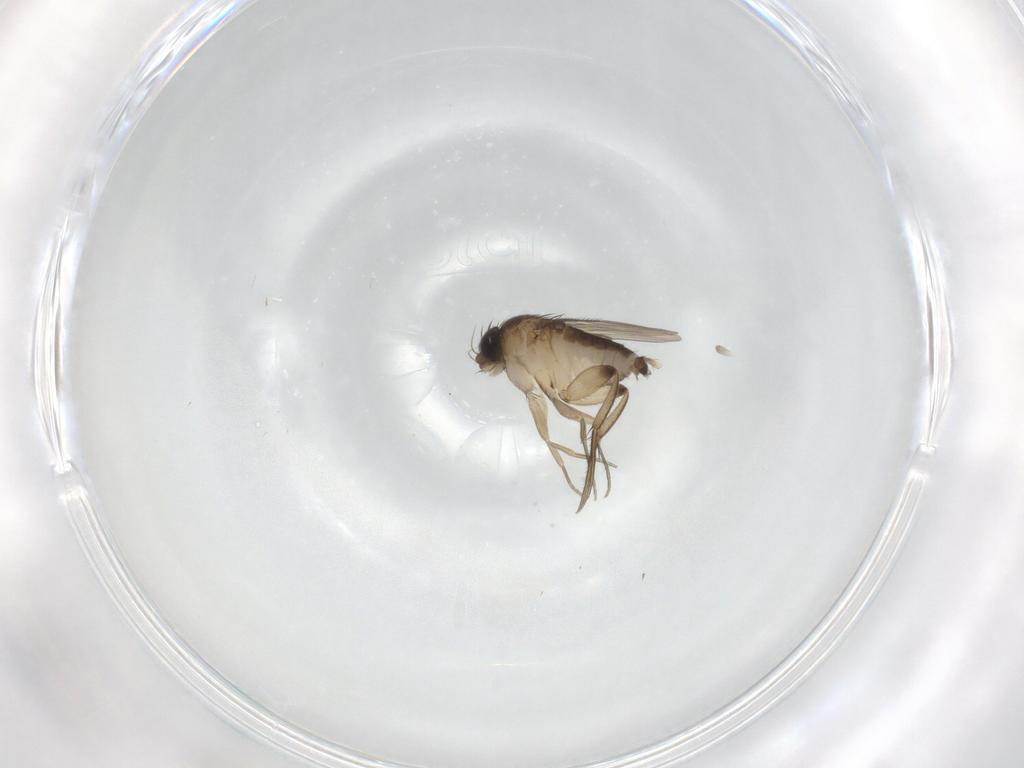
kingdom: Animalia
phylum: Arthropoda
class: Insecta
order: Diptera
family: Phoridae
